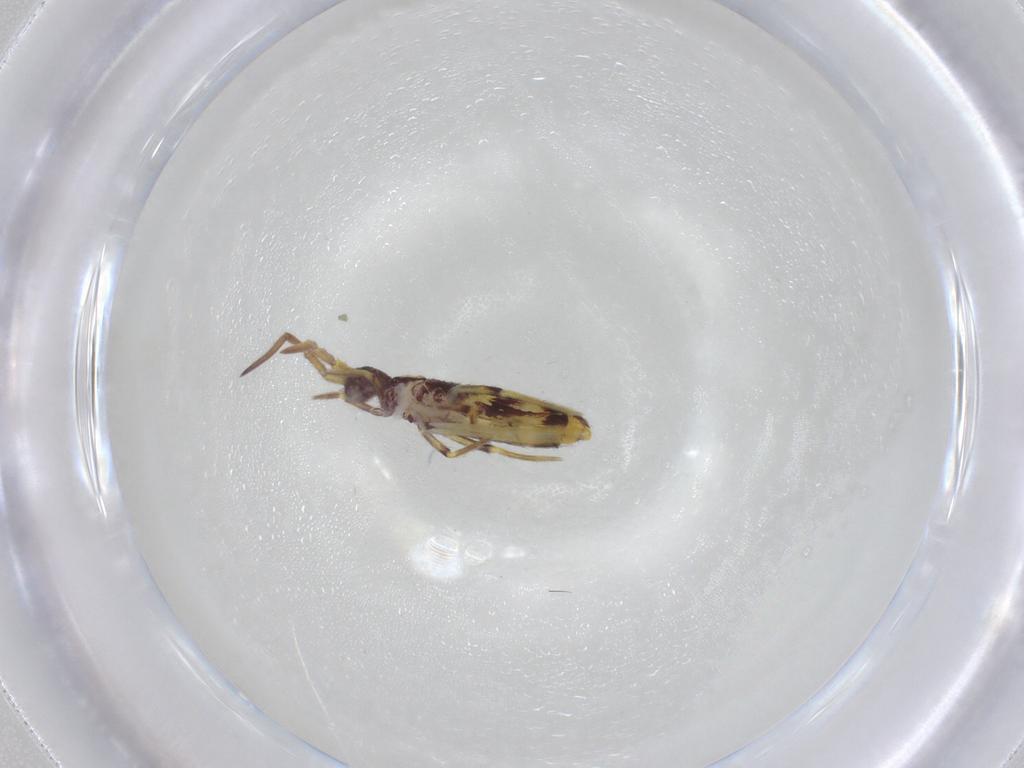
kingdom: Animalia
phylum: Arthropoda
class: Collembola
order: Entomobryomorpha
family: Entomobryidae
